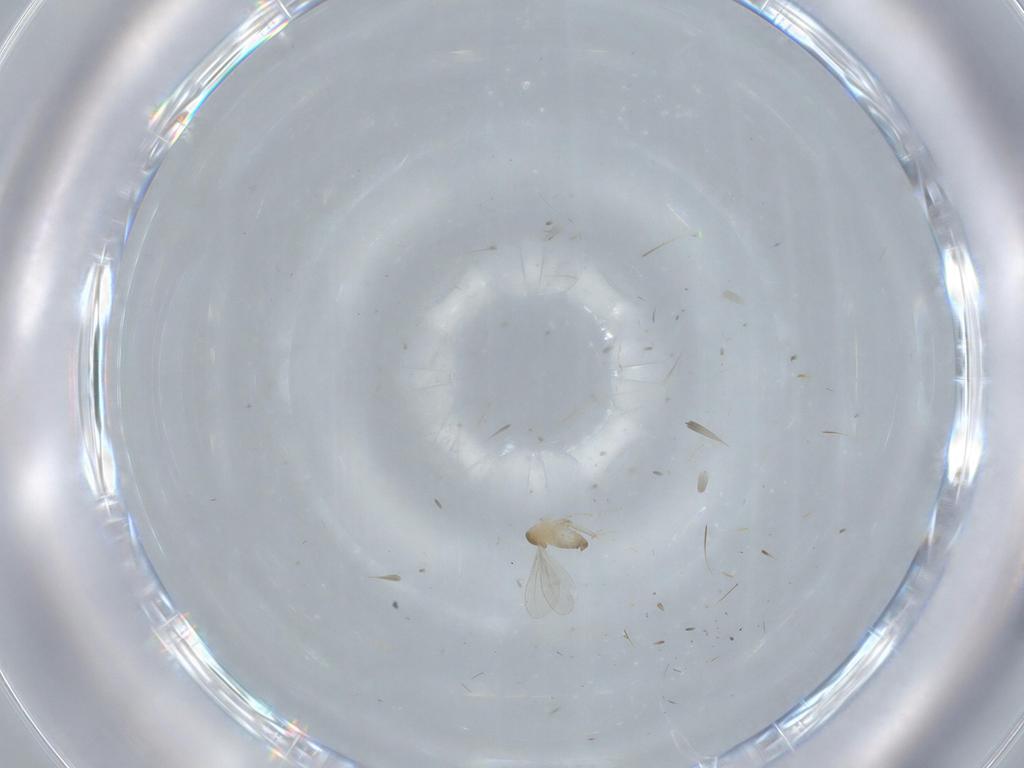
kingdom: Animalia
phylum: Arthropoda
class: Insecta
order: Diptera
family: Cecidomyiidae
